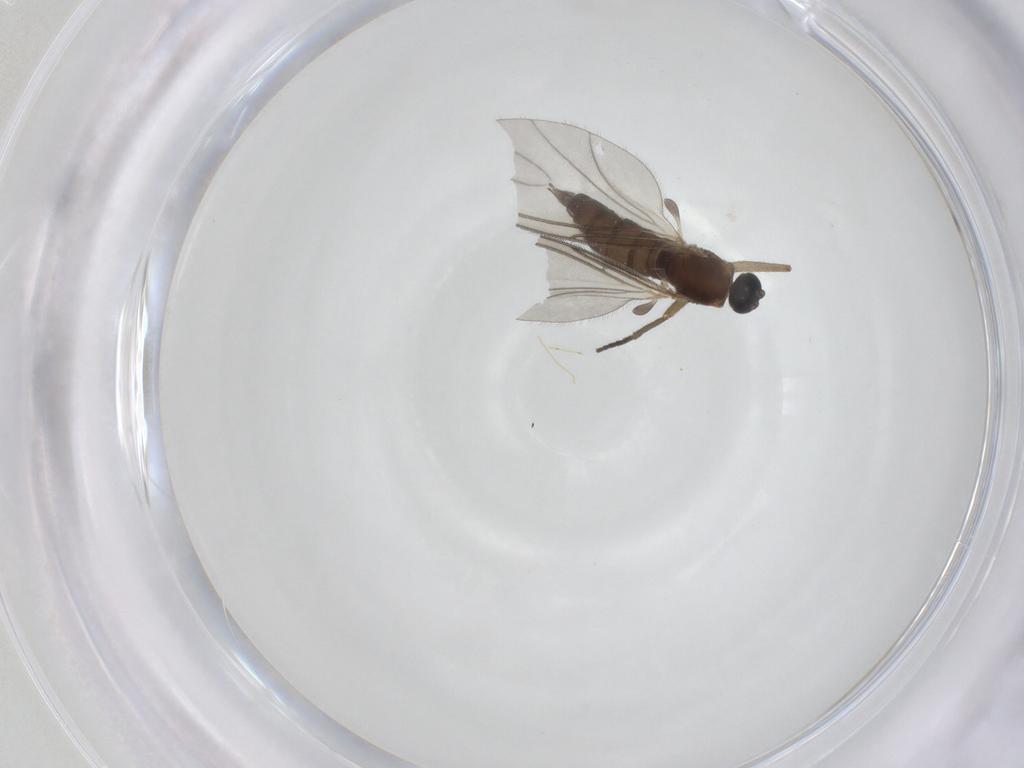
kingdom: Animalia
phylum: Arthropoda
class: Insecta
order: Diptera
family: Sciaridae
